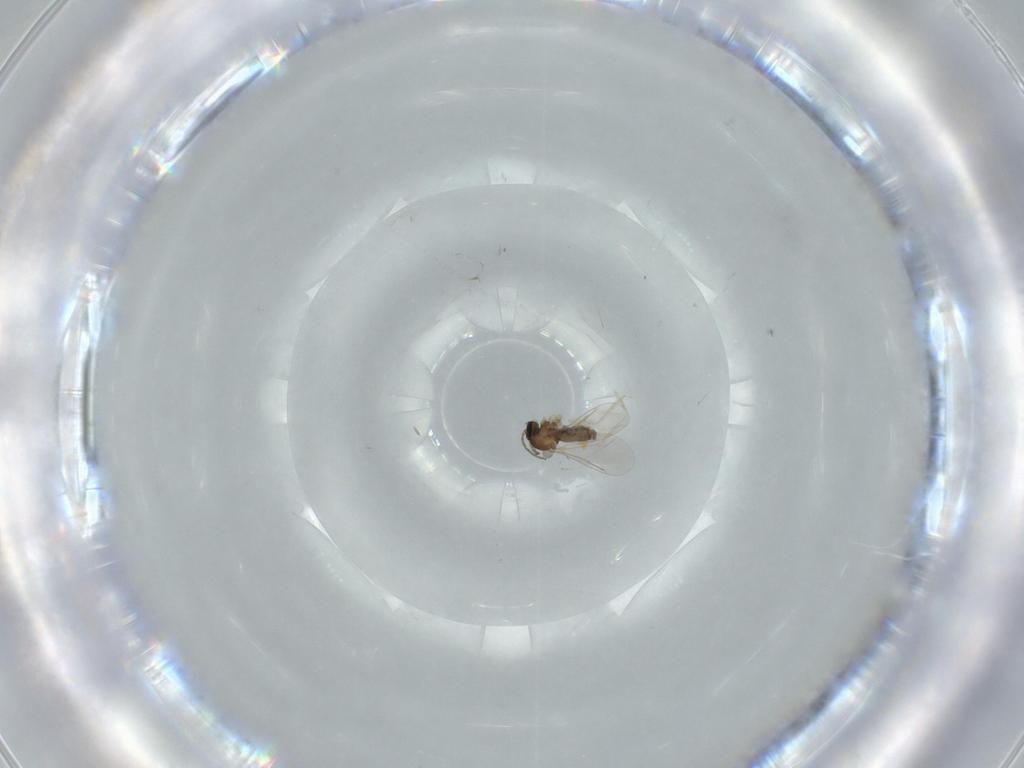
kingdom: Animalia
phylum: Arthropoda
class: Insecta
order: Diptera
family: Cecidomyiidae
